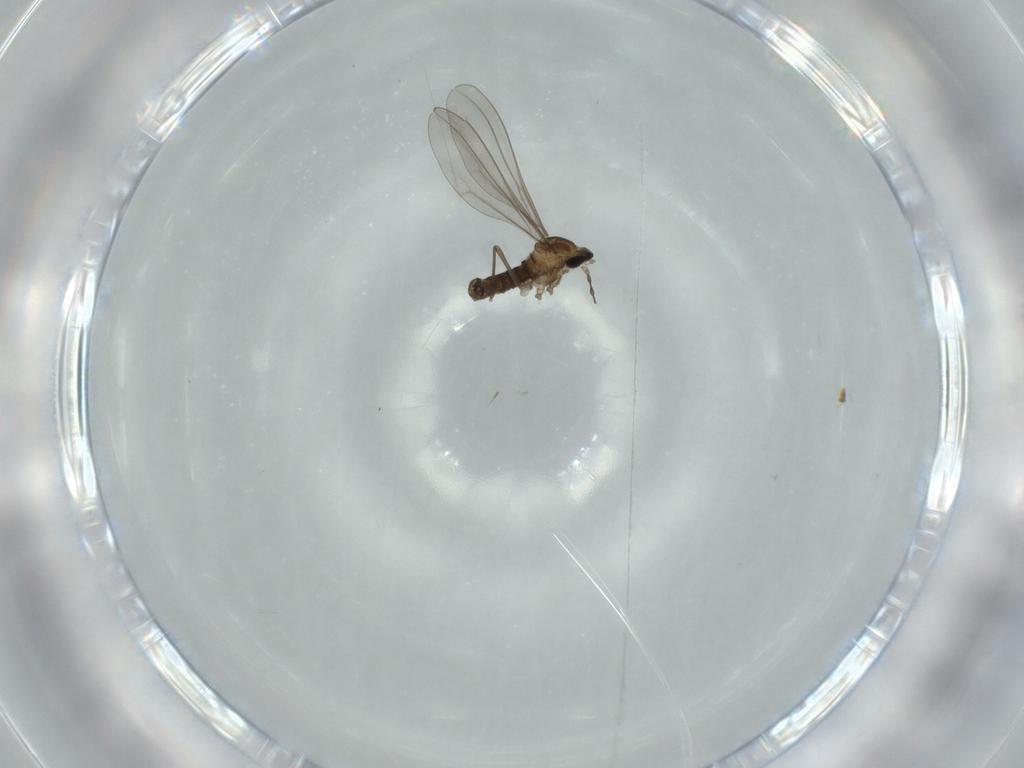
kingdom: Animalia
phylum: Arthropoda
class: Insecta
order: Diptera
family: Cecidomyiidae
